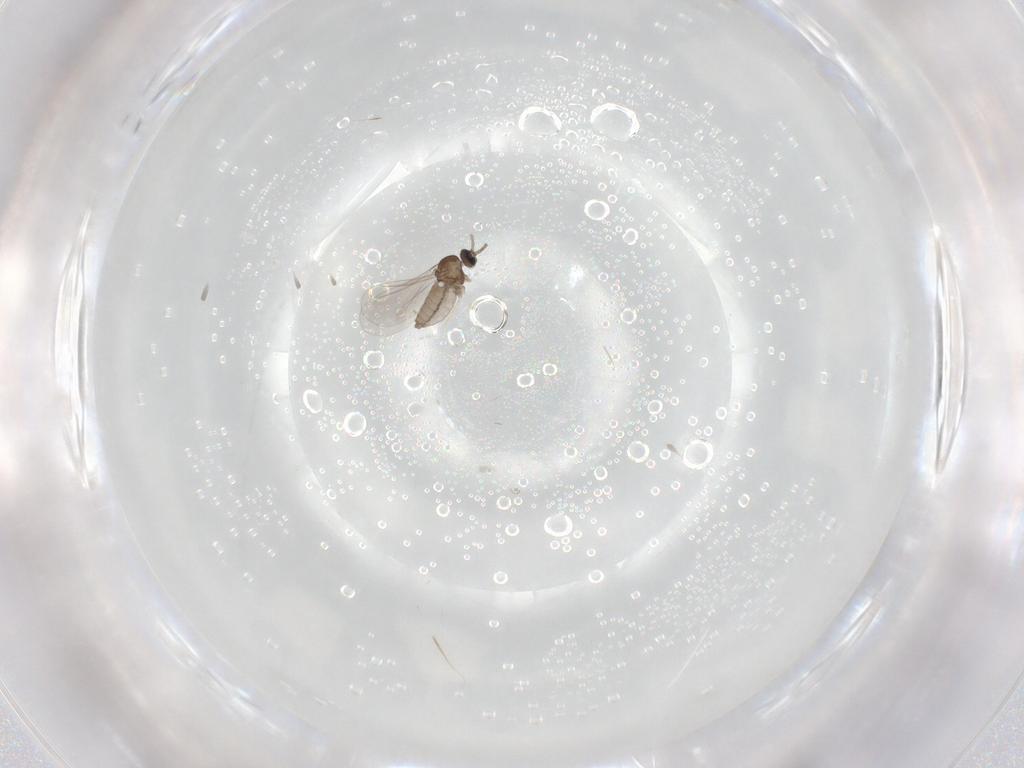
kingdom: Animalia
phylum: Arthropoda
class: Insecta
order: Diptera
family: Cecidomyiidae
